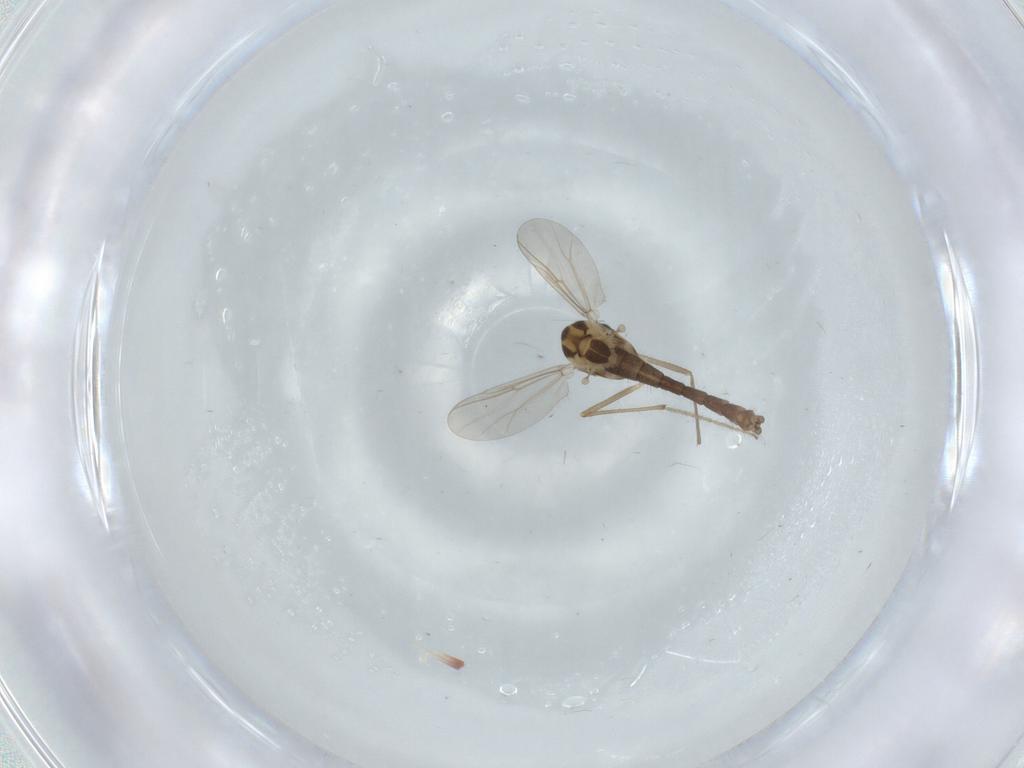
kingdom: Animalia
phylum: Arthropoda
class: Insecta
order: Diptera
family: Chironomidae
